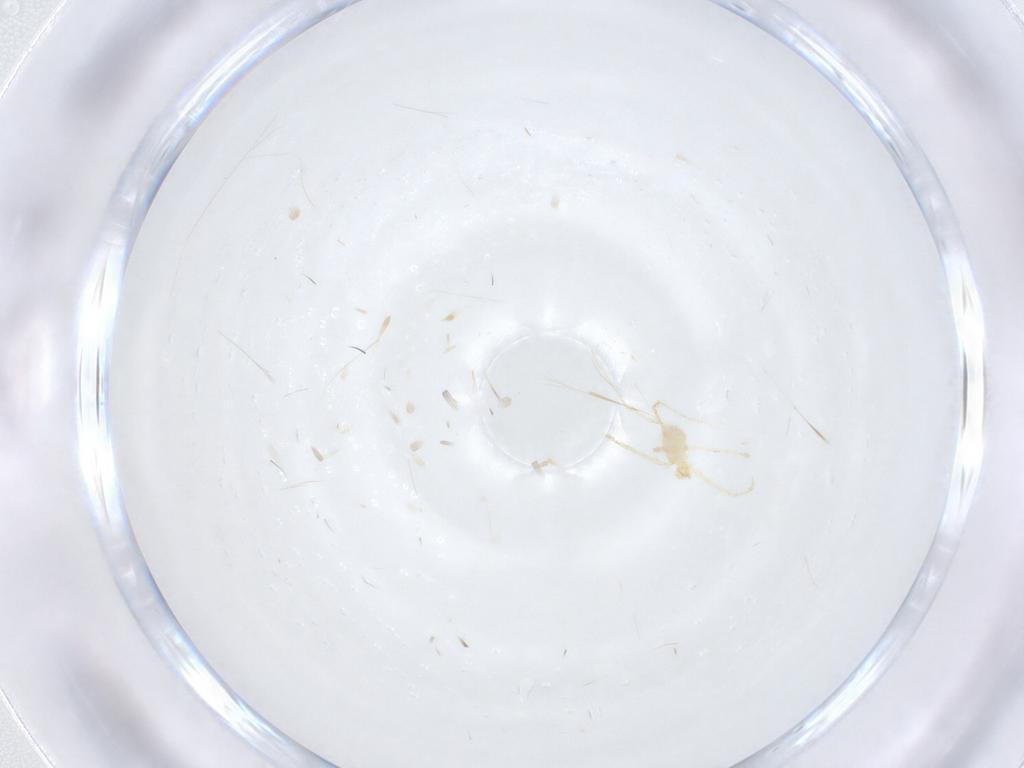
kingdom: Animalia
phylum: Arthropoda
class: Arachnida
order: Trombidiformes
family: Erythraeidae
